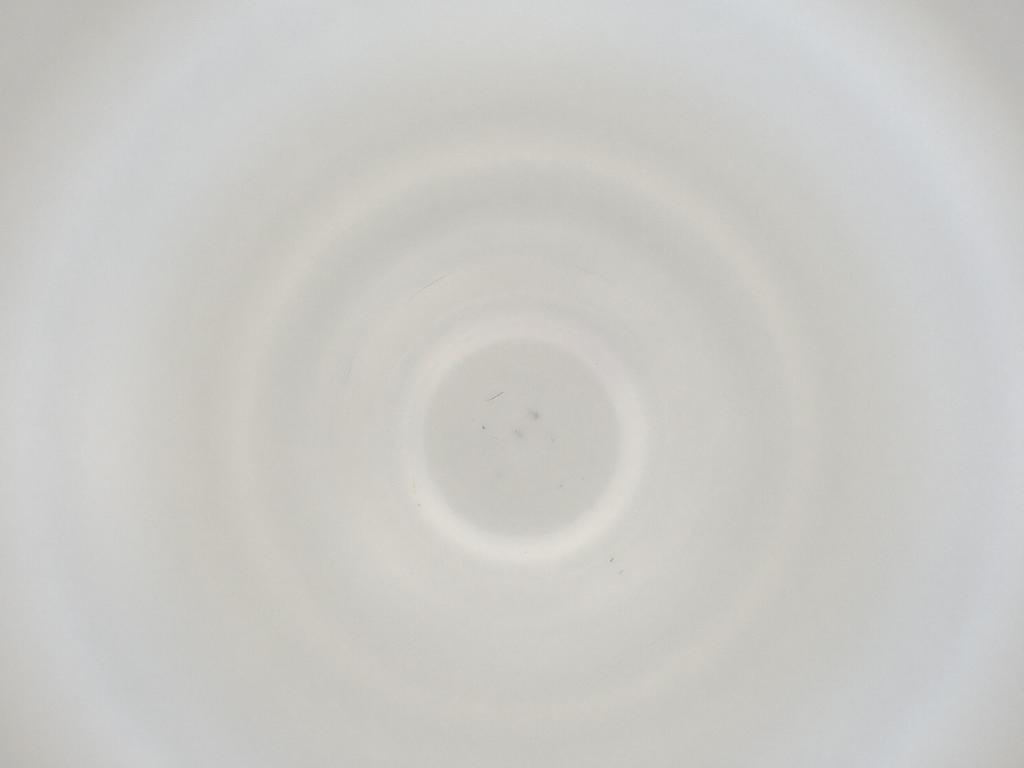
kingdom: Animalia
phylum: Arthropoda
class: Insecta
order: Diptera
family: Cecidomyiidae
